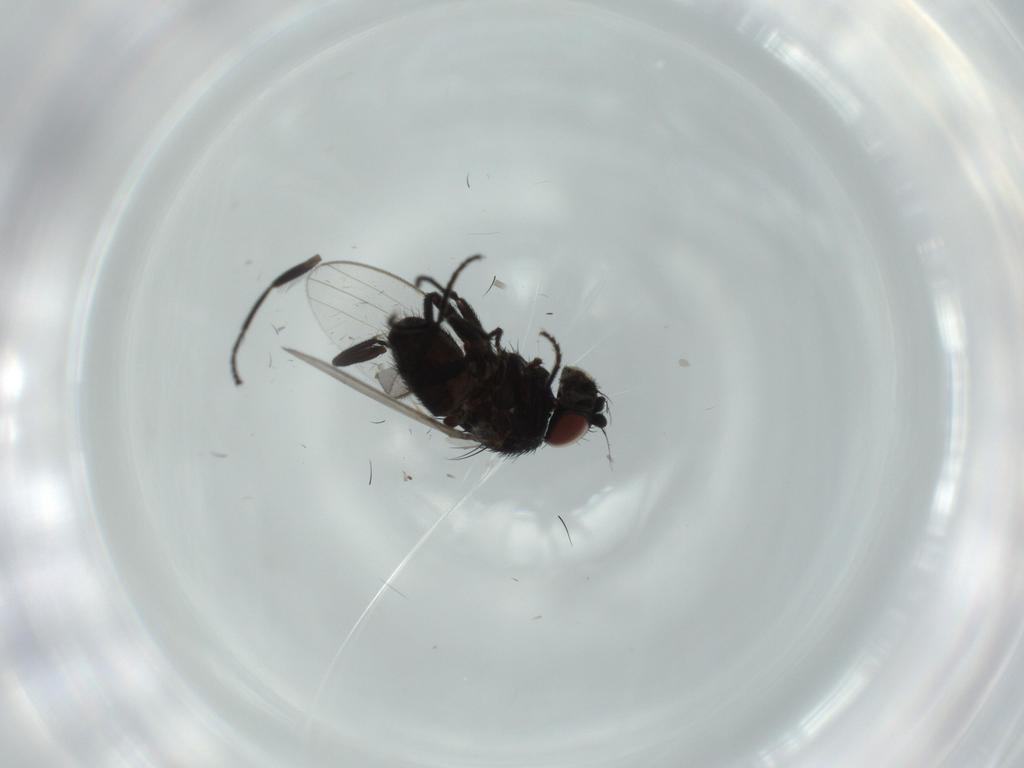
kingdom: Animalia
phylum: Arthropoda
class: Insecta
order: Diptera
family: Milichiidae
